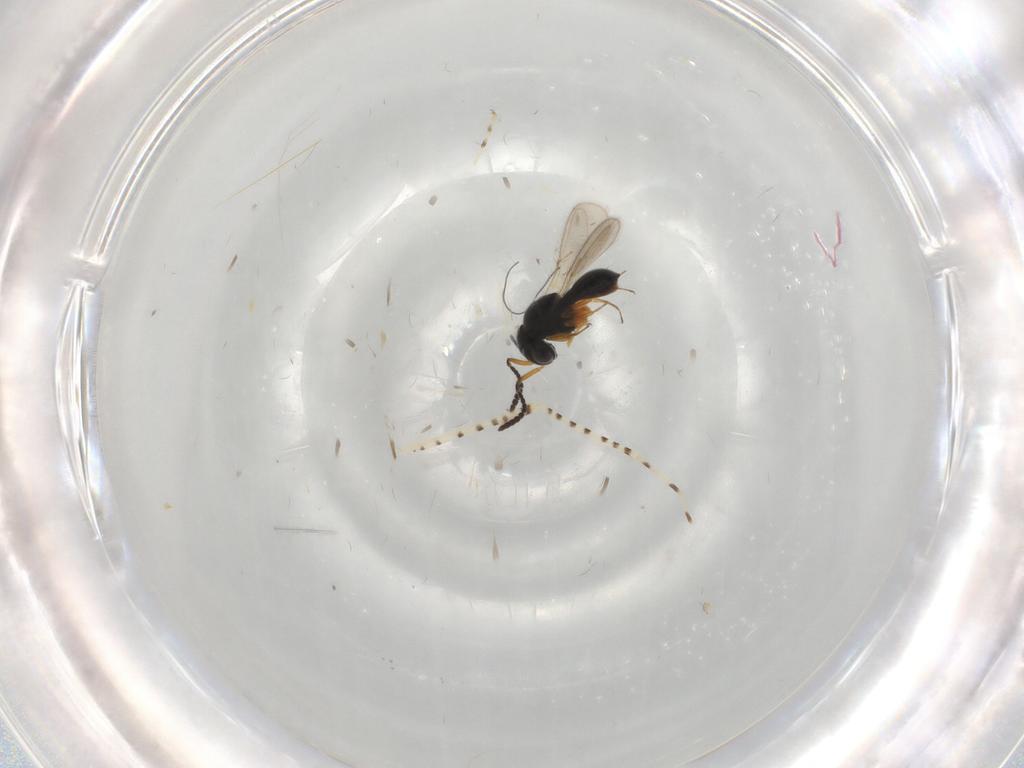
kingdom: Animalia
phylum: Arthropoda
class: Insecta
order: Hymenoptera
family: Scelionidae
